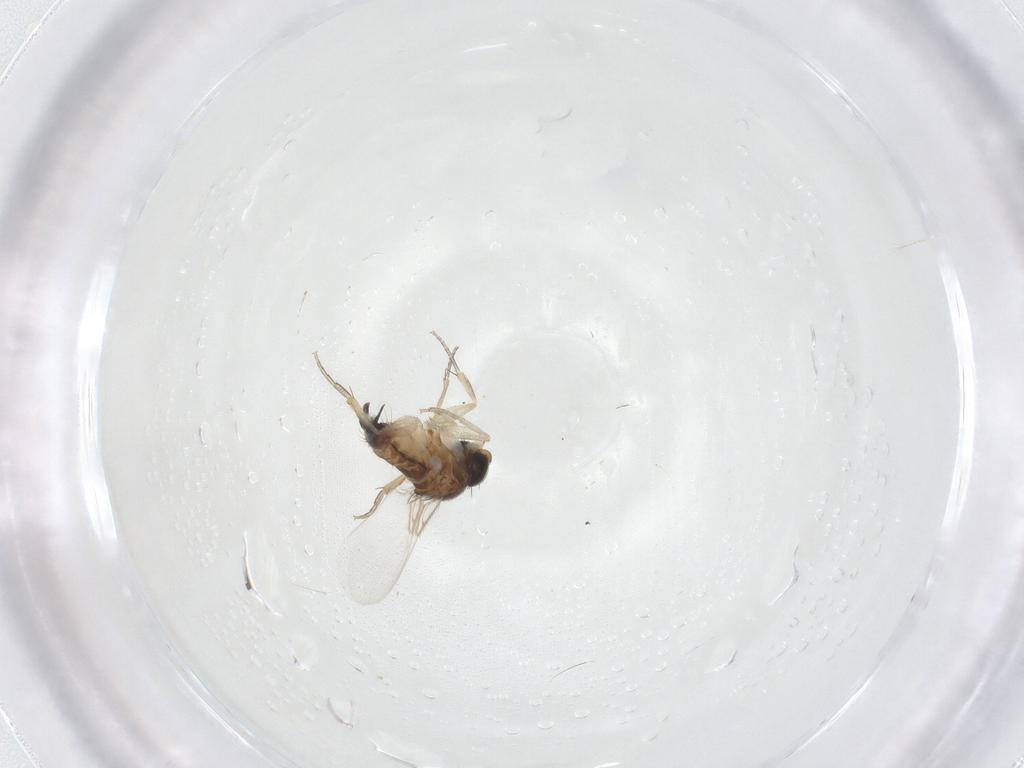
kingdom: Animalia
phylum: Arthropoda
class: Insecta
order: Diptera
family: Phoridae
